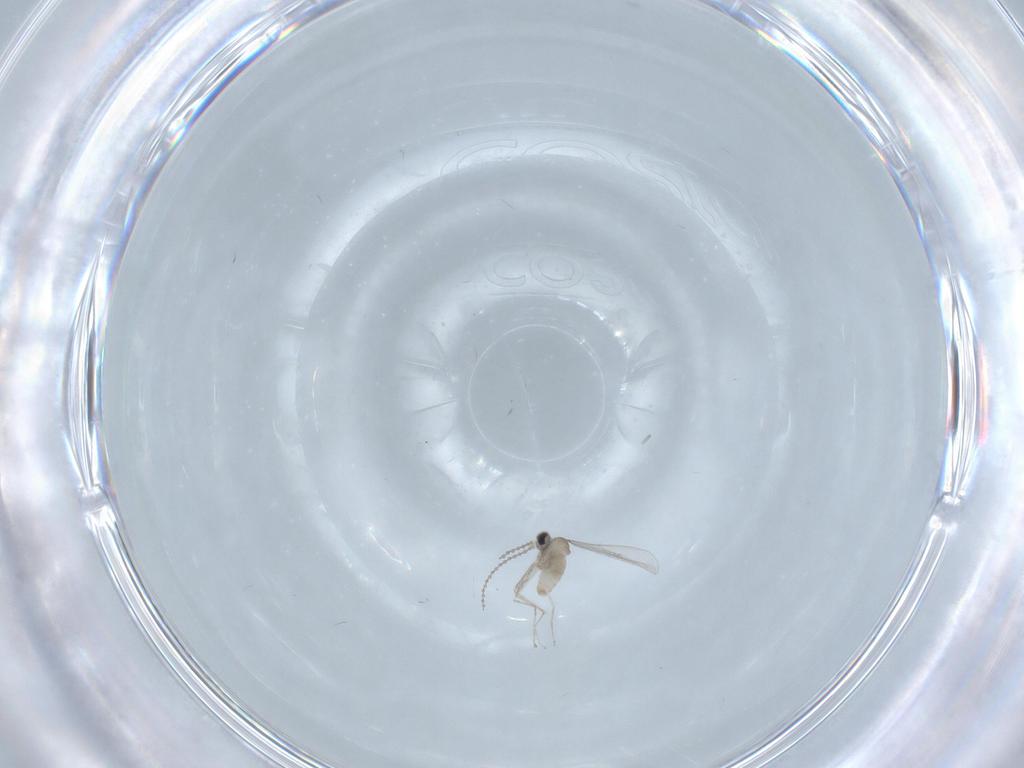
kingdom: Animalia
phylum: Arthropoda
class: Insecta
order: Diptera
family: Cecidomyiidae
